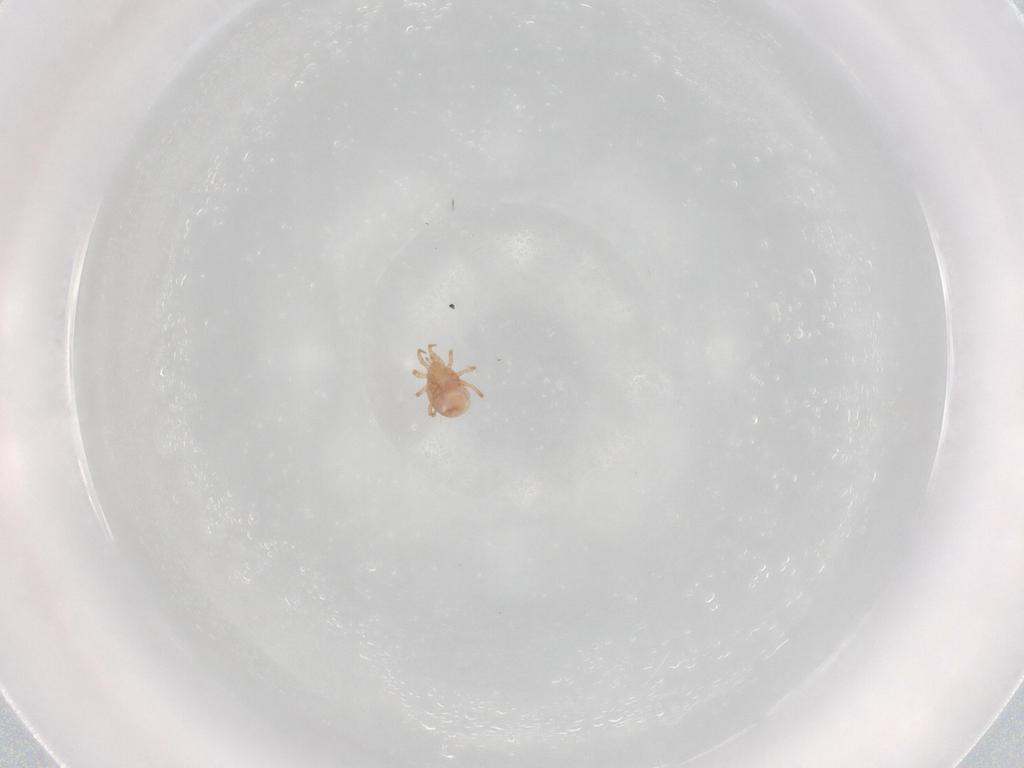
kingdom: Animalia
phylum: Arthropoda
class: Arachnida
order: Mesostigmata
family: Phytoseiidae
